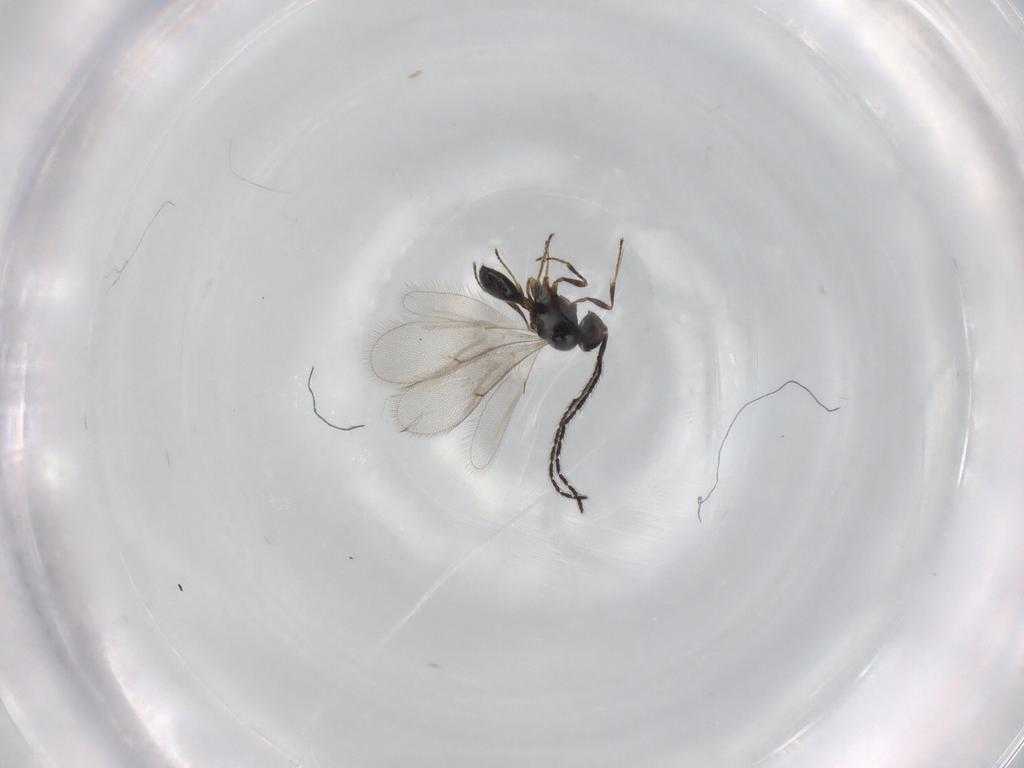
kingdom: Animalia
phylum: Arthropoda
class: Insecta
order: Hymenoptera
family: Scelionidae
